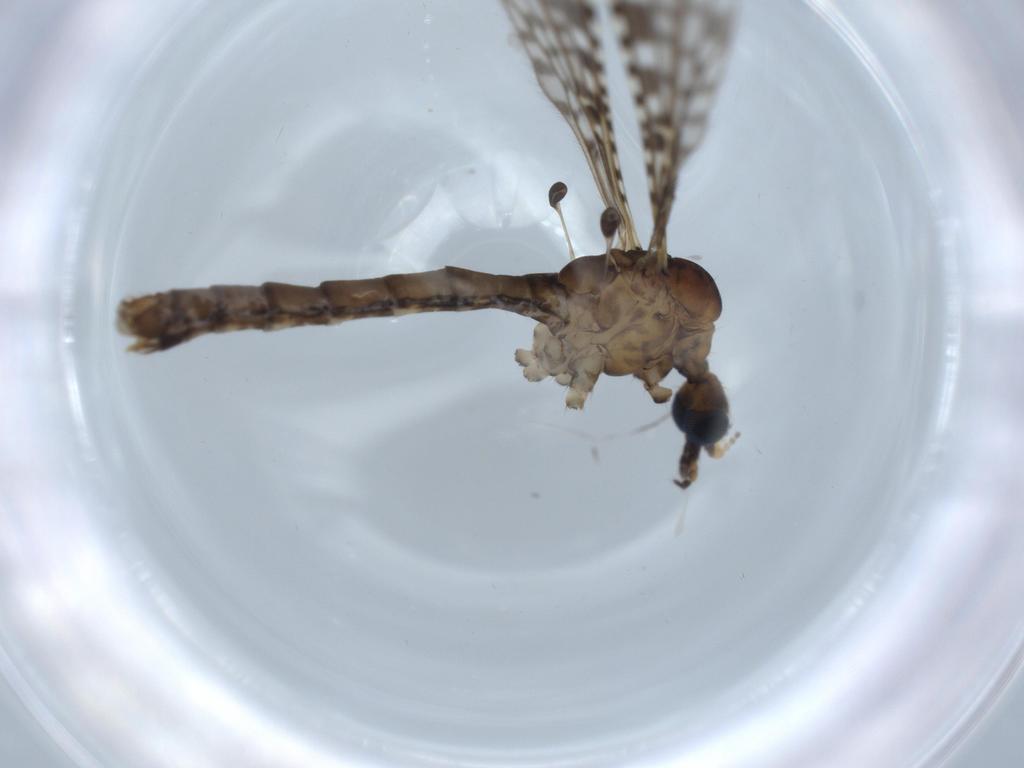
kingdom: Animalia
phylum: Arthropoda
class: Insecta
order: Diptera
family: Limoniidae
